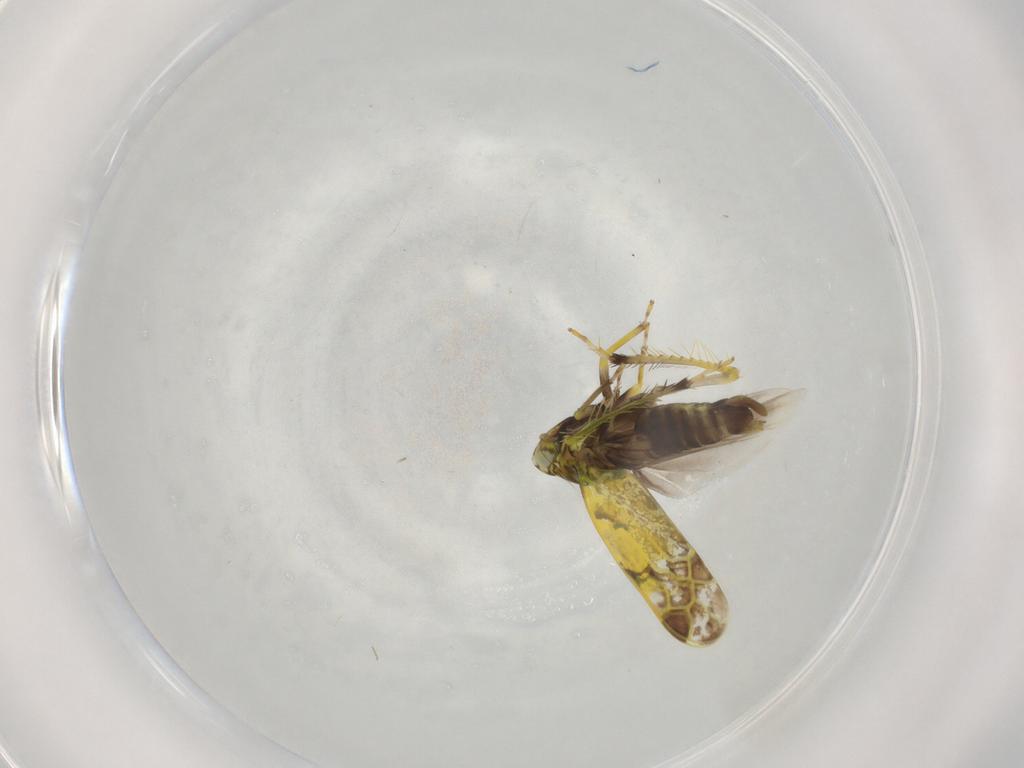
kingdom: Animalia
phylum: Arthropoda
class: Insecta
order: Hemiptera
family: Cicadellidae
